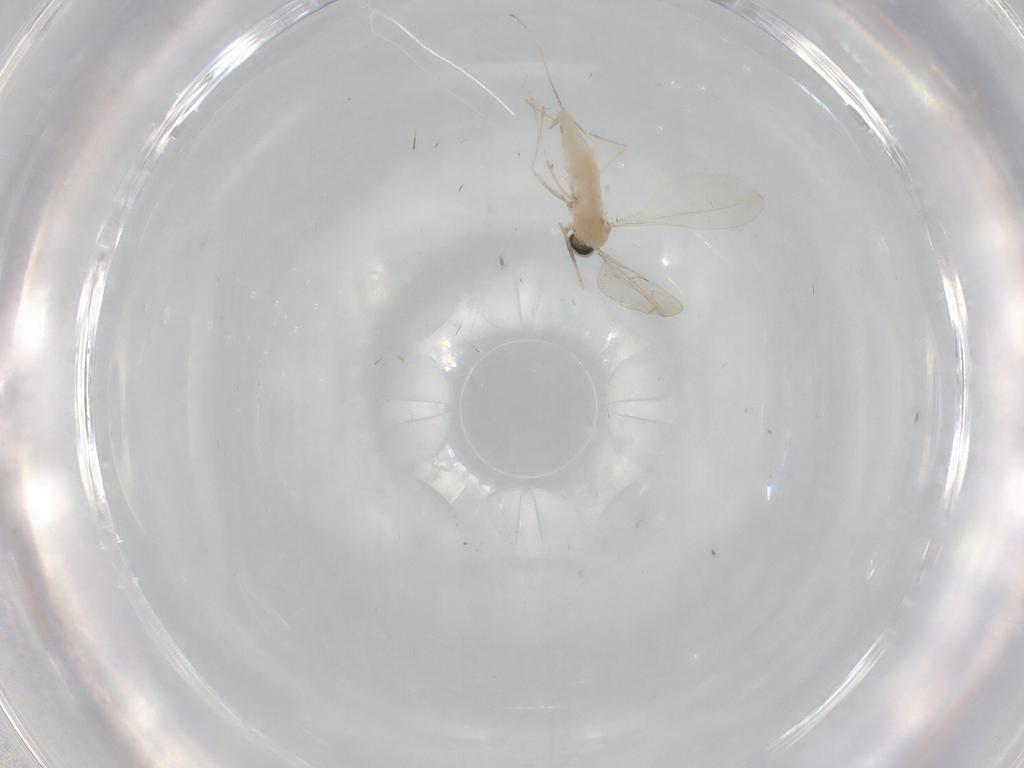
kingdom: Animalia
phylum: Arthropoda
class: Insecta
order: Diptera
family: Cecidomyiidae
